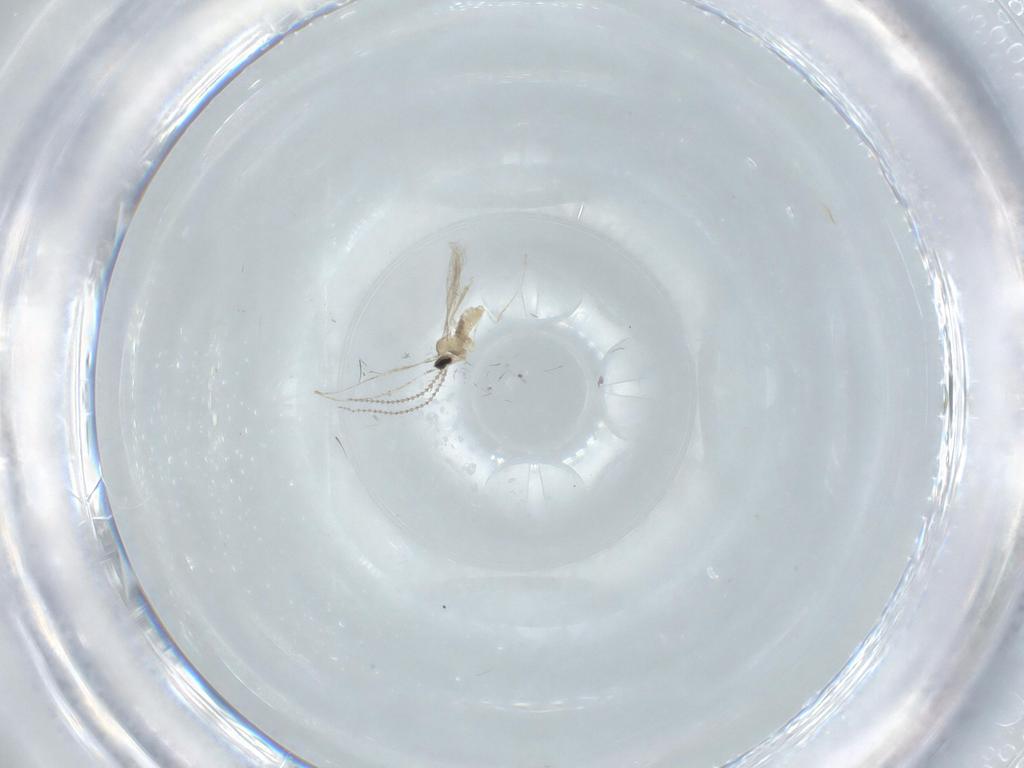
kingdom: Animalia
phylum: Arthropoda
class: Insecta
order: Diptera
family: Cecidomyiidae
